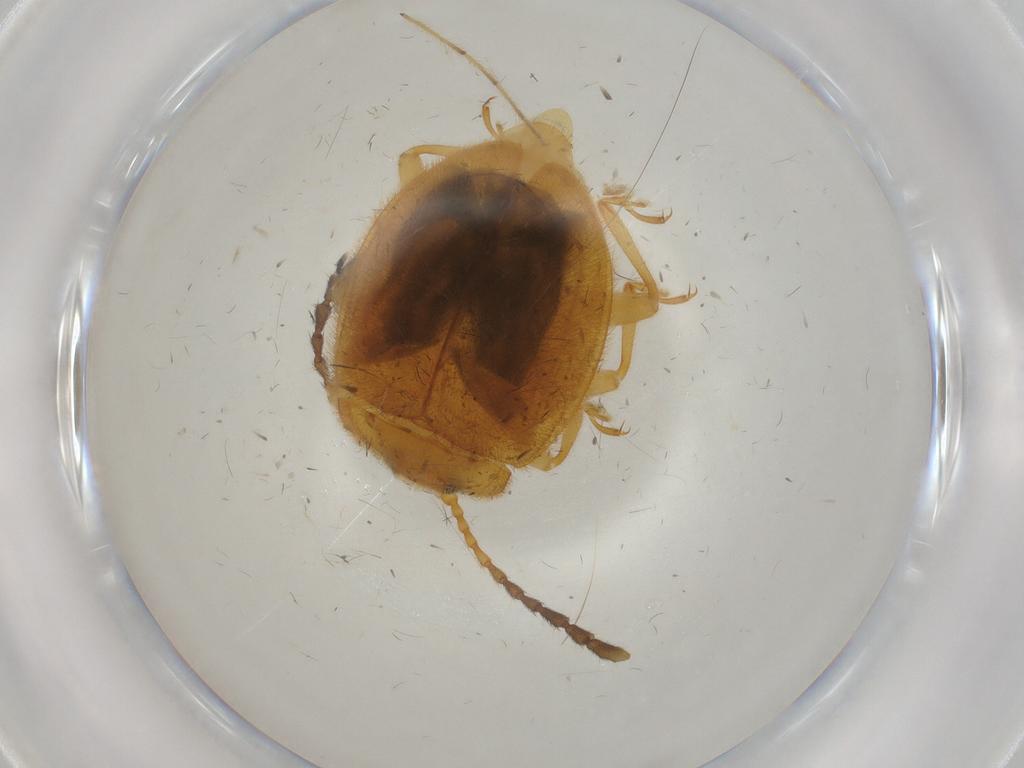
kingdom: Animalia
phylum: Arthropoda
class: Insecta
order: Coleoptera
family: Endomychidae
